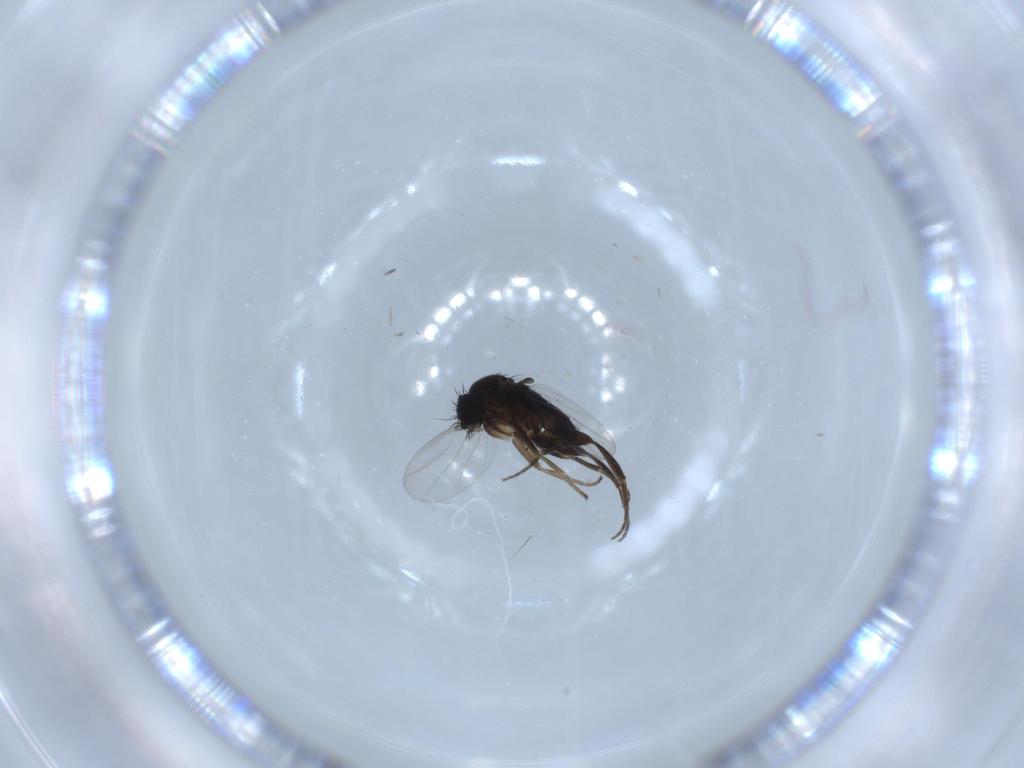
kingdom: Animalia
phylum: Arthropoda
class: Insecta
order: Diptera
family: Phoridae
